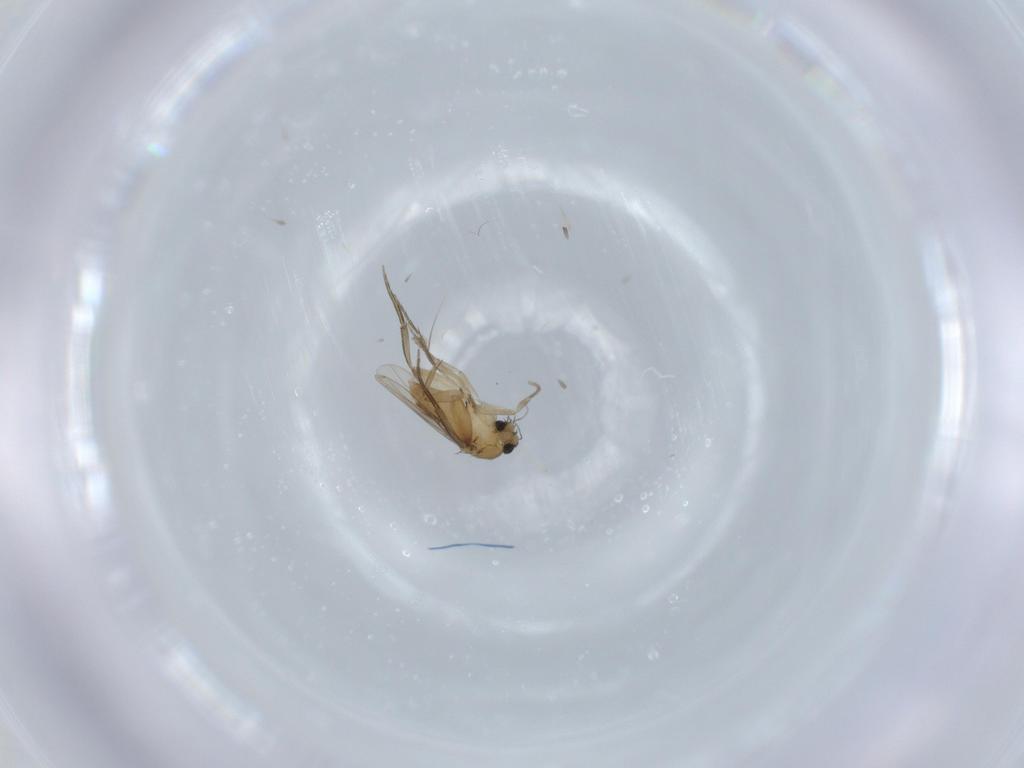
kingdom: Animalia
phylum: Arthropoda
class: Insecta
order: Diptera
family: Phoridae
